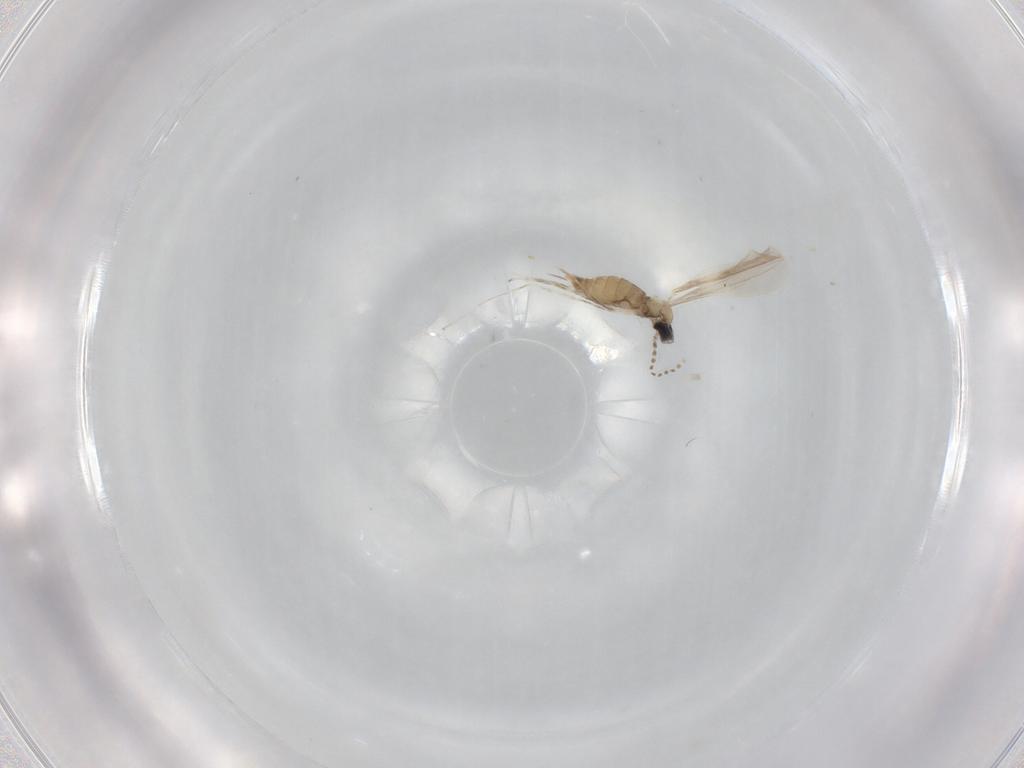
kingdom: Animalia
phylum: Arthropoda
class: Insecta
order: Diptera
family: Cecidomyiidae
